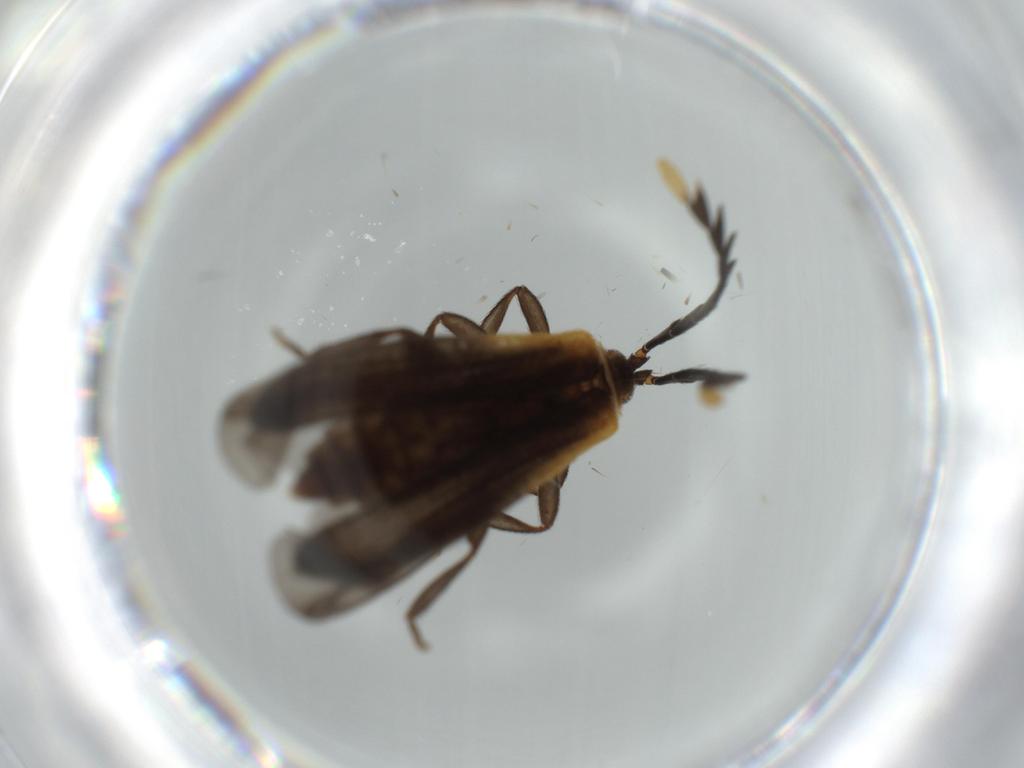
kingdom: Animalia
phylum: Arthropoda
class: Insecta
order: Coleoptera
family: Lycidae
